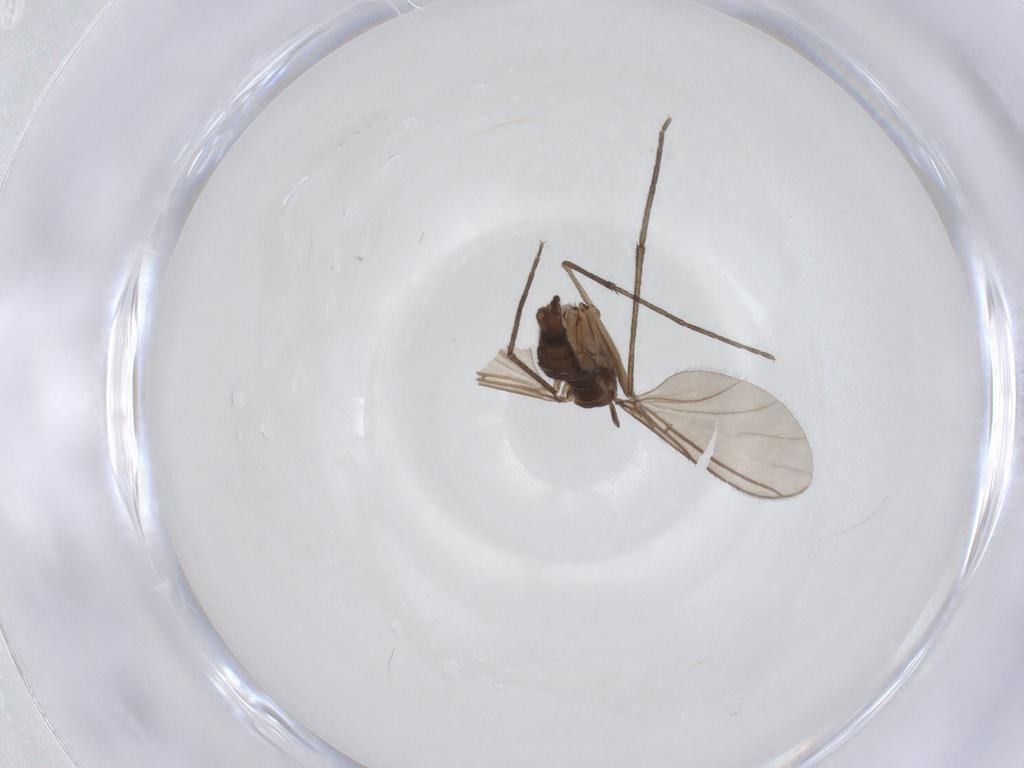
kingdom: Animalia
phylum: Arthropoda
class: Insecta
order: Diptera
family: Sciaridae
